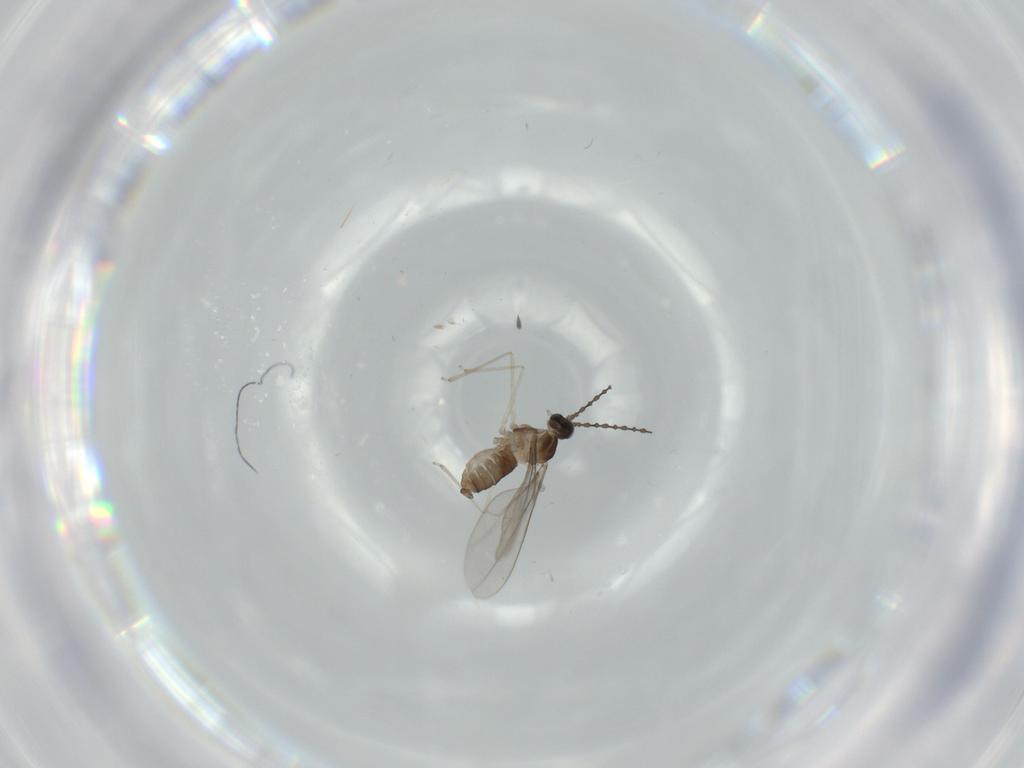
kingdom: Animalia
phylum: Arthropoda
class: Insecta
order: Diptera
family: Cecidomyiidae
